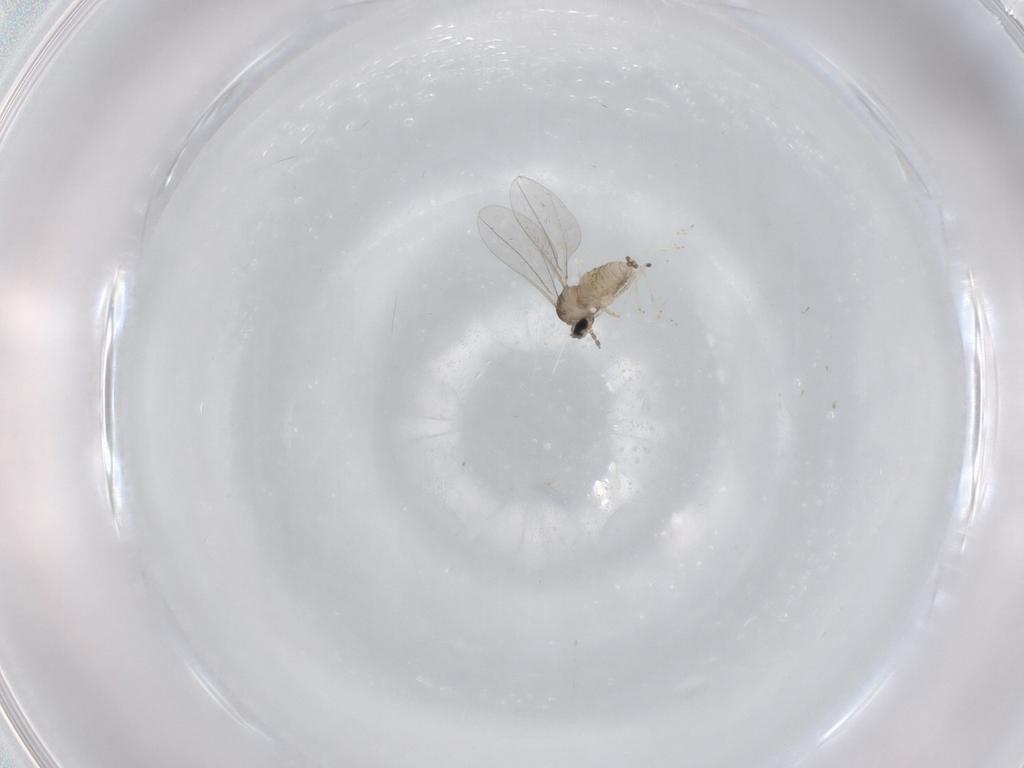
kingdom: Animalia
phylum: Arthropoda
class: Insecta
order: Diptera
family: Cecidomyiidae
